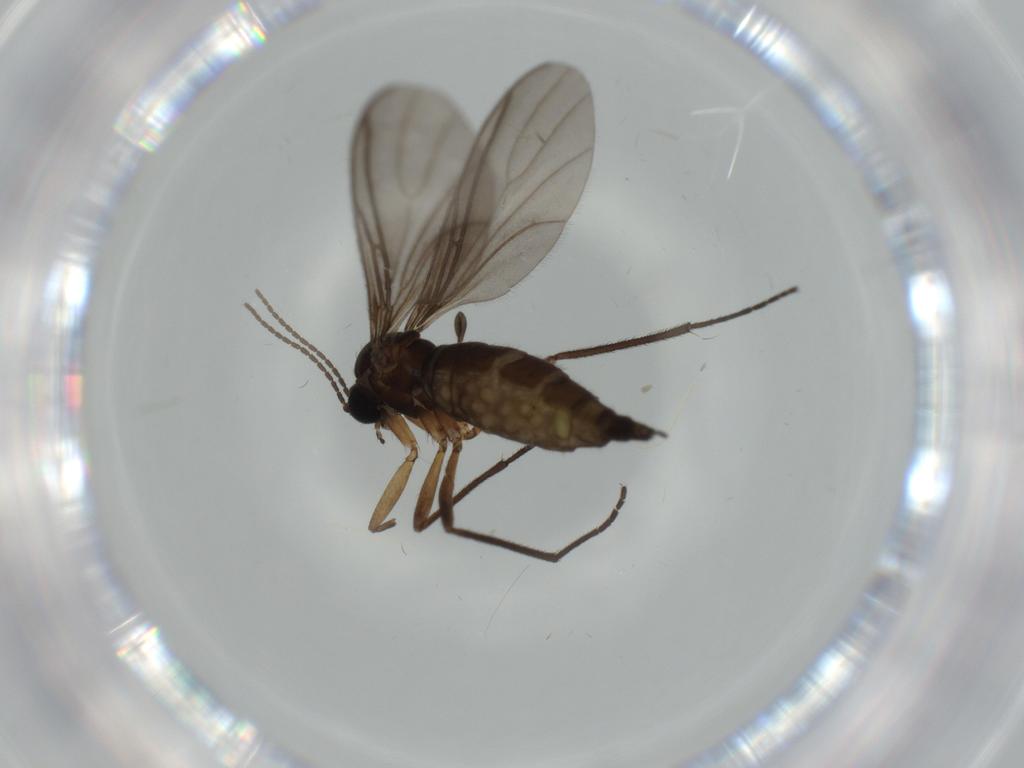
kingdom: Animalia
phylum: Arthropoda
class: Insecta
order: Diptera
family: Sciaridae
